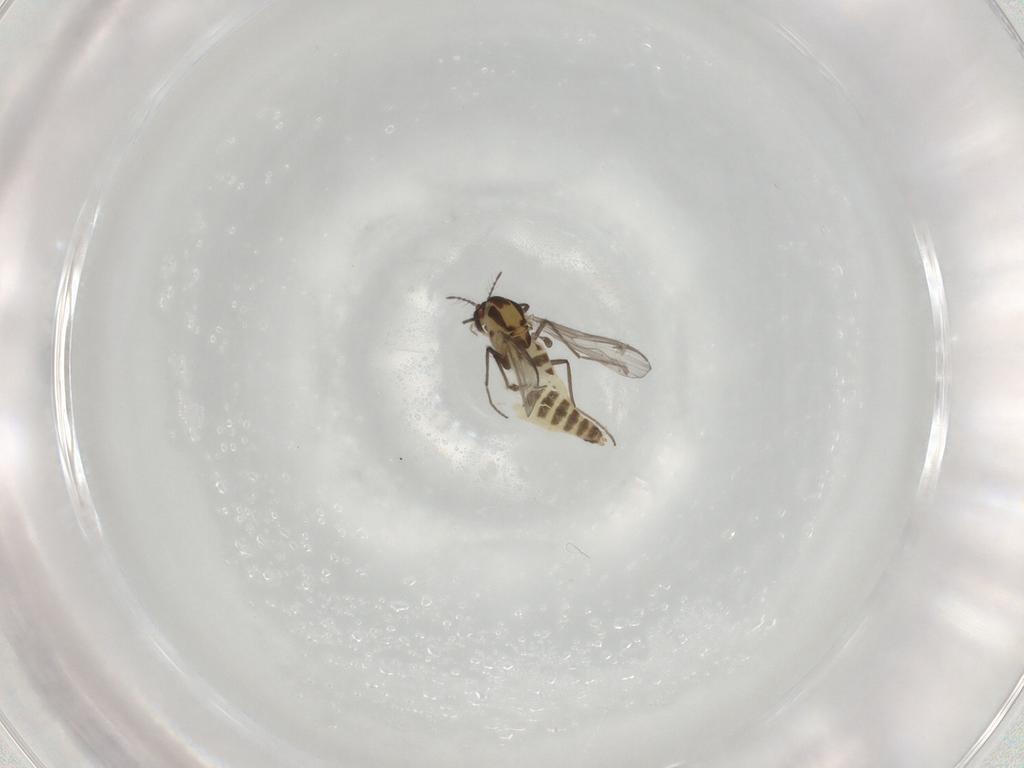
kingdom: Animalia
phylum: Arthropoda
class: Insecta
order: Diptera
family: Chironomidae
